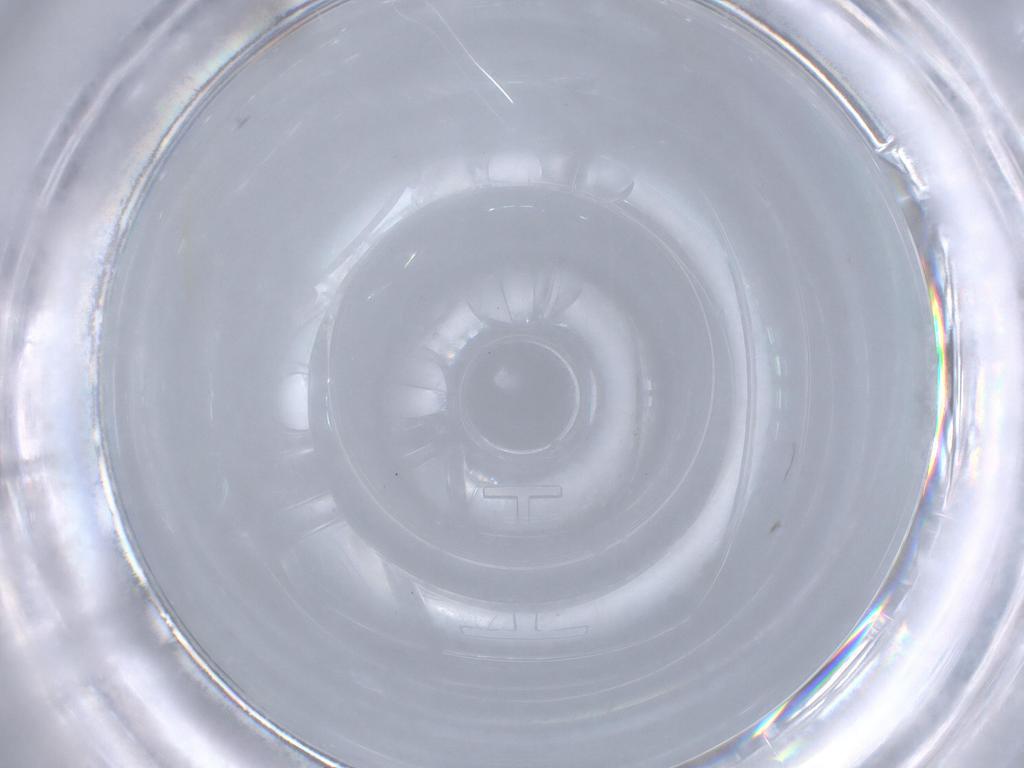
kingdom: Animalia
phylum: Arthropoda
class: Insecta
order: Diptera
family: Sciaridae
